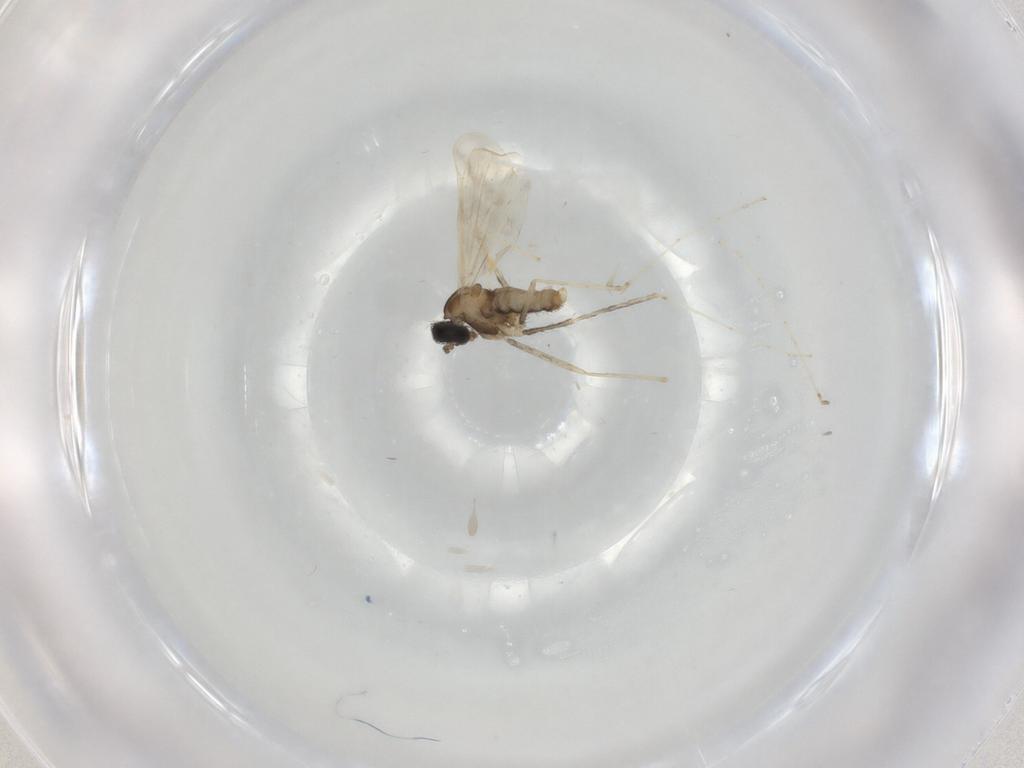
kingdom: Animalia
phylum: Arthropoda
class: Insecta
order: Diptera
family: Cecidomyiidae
